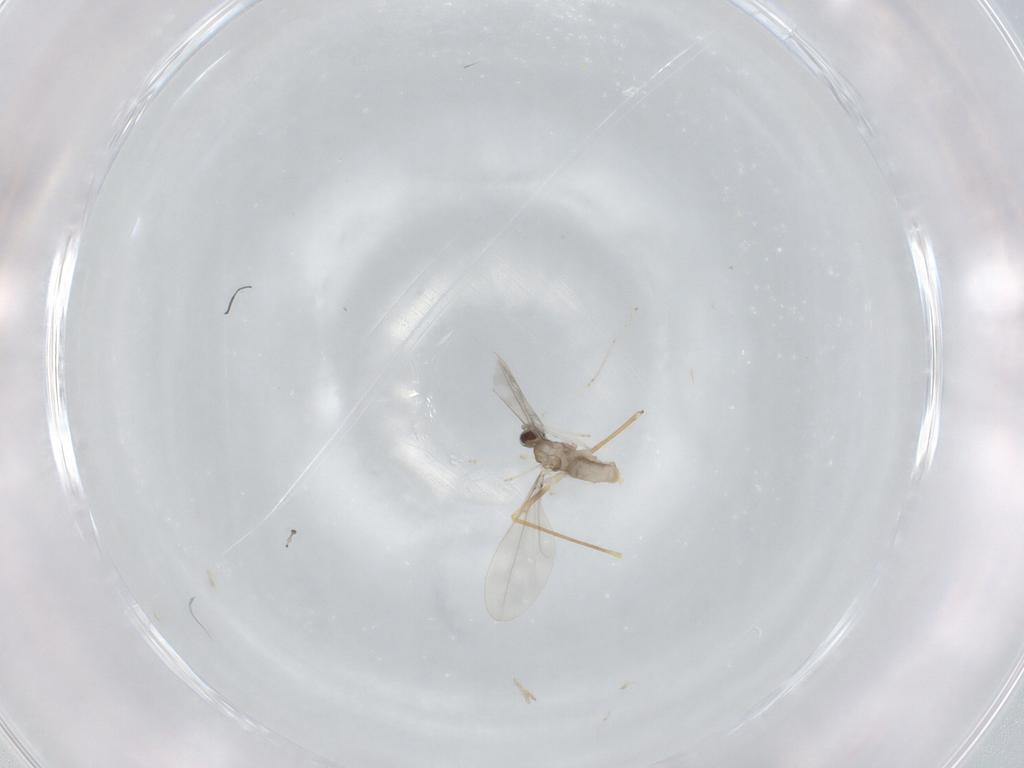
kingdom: Animalia
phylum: Arthropoda
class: Insecta
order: Diptera
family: Cecidomyiidae
